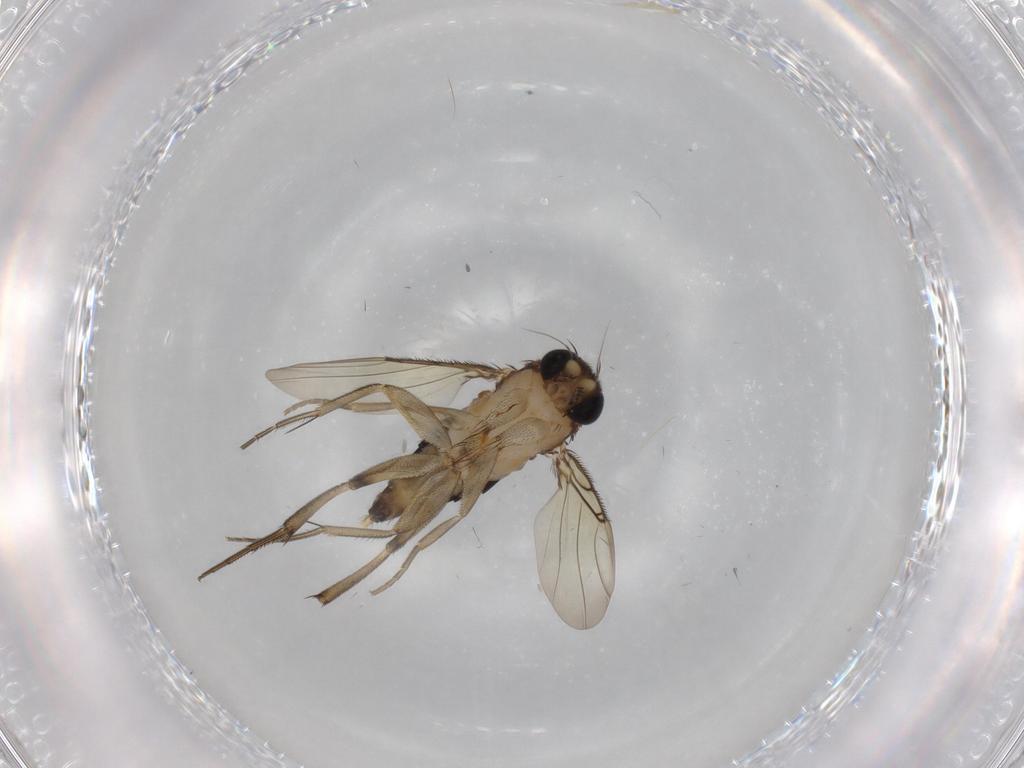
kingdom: Animalia
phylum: Arthropoda
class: Insecta
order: Diptera
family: Phoridae
